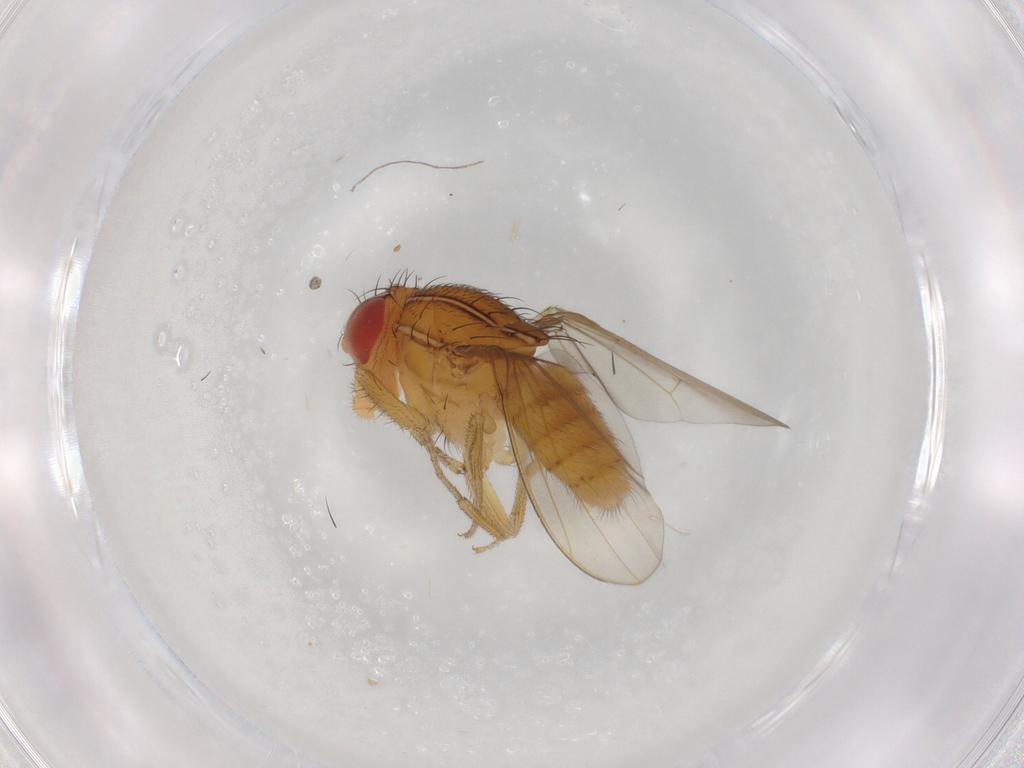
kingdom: Animalia
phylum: Arthropoda
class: Insecta
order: Diptera
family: Drosophilidae
